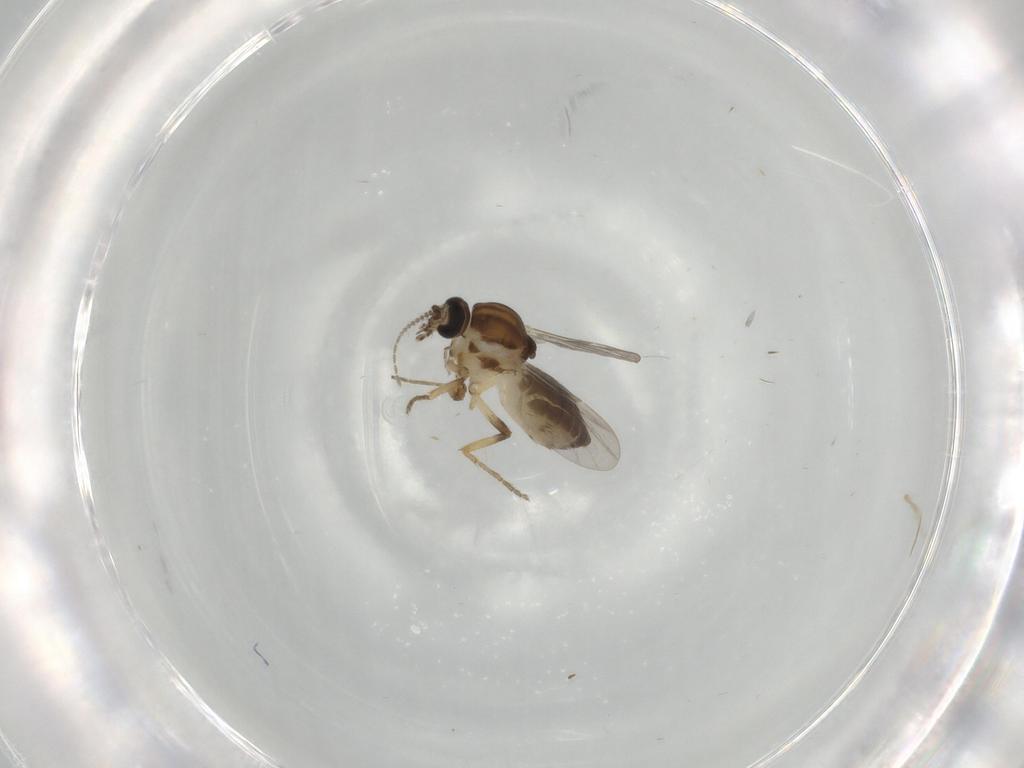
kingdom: Animalia
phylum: Arthropoda
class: Insecta
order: Diptera
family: Ceratopogonidae
